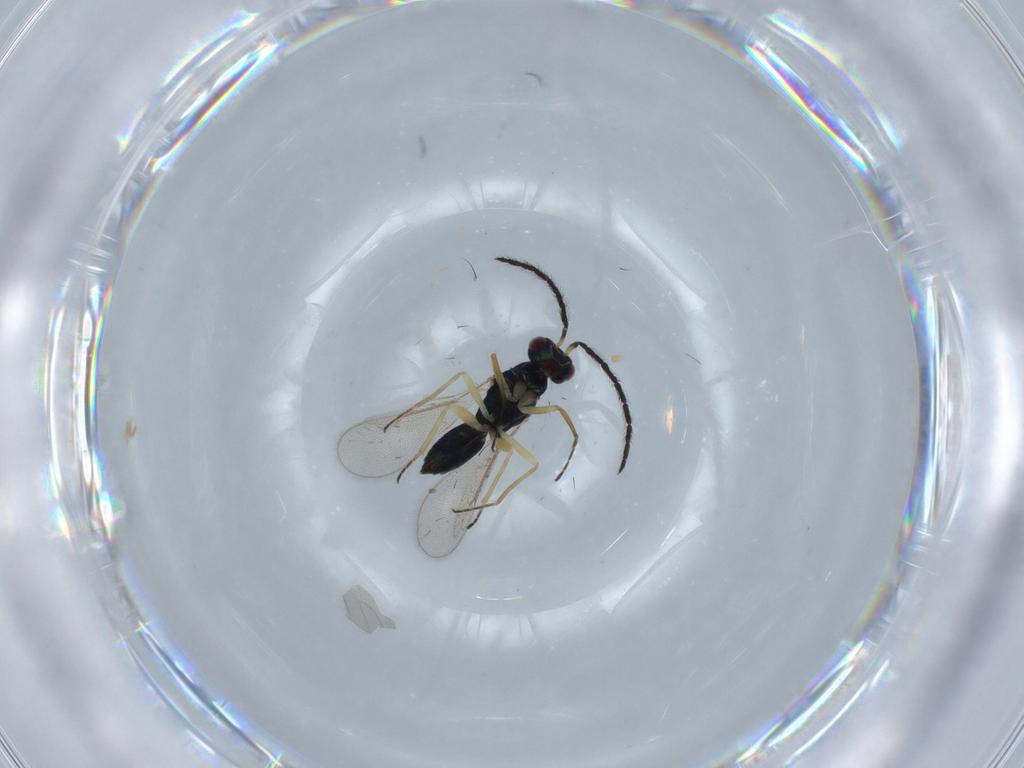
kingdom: Animalia
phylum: Arthropoda
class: Insecta
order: Hymenoptera
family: Eulophidae
